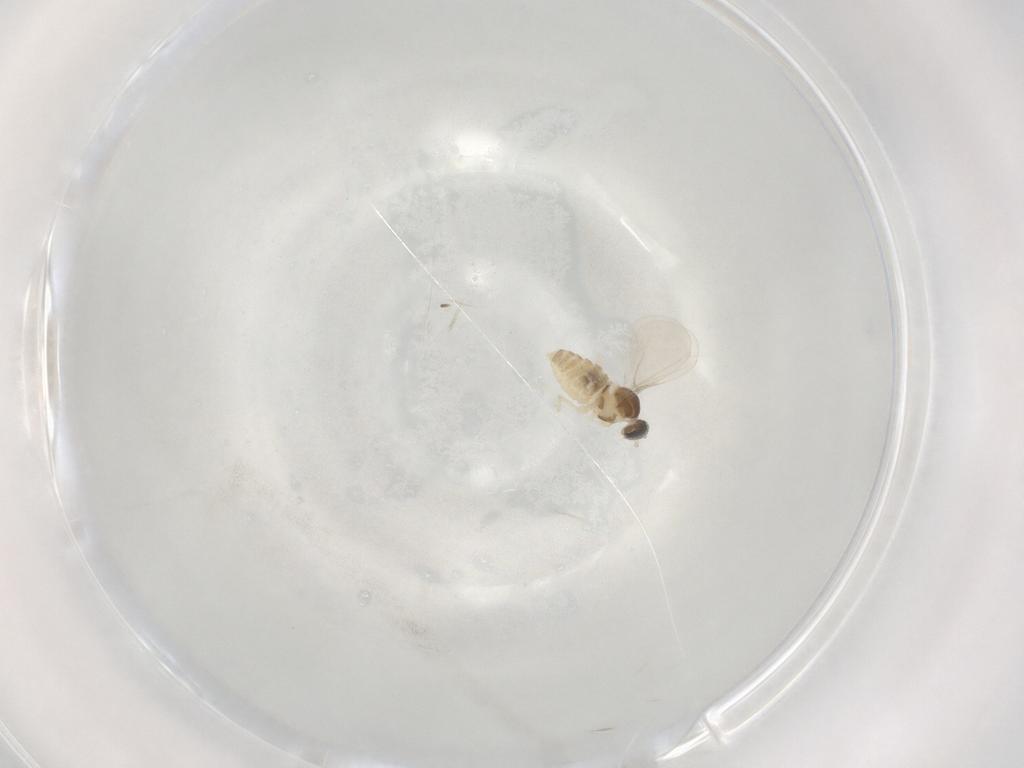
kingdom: Animalia
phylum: Arthropoda
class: Insecta
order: Diptera
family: Cecidomyiidae
